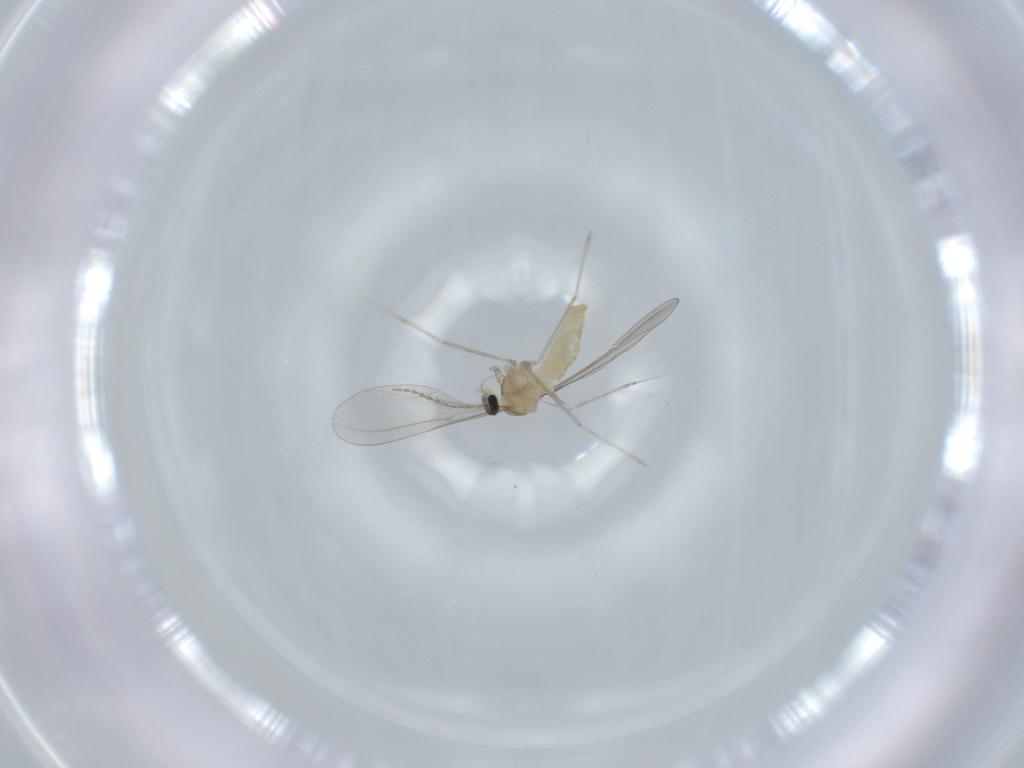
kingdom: Animalia
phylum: Arthropoda
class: Insecta
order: Diptera
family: Cecidomyiidae
